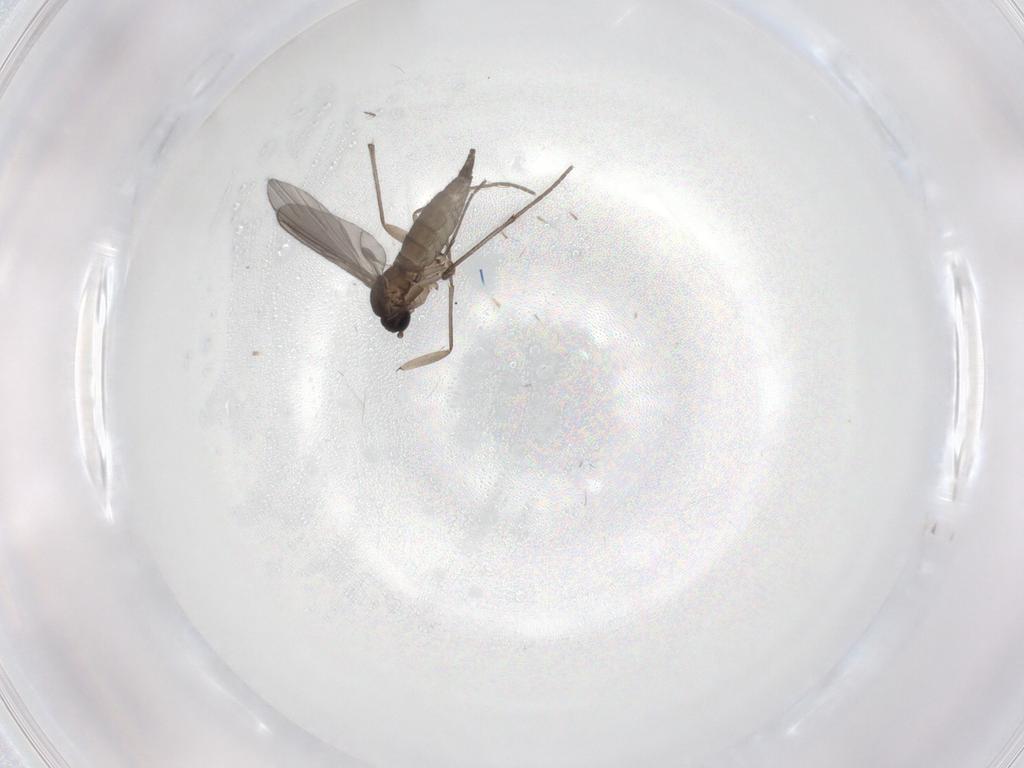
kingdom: Animalia
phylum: Arthropoda
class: Insecta
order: Diptera
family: Sciaridae
